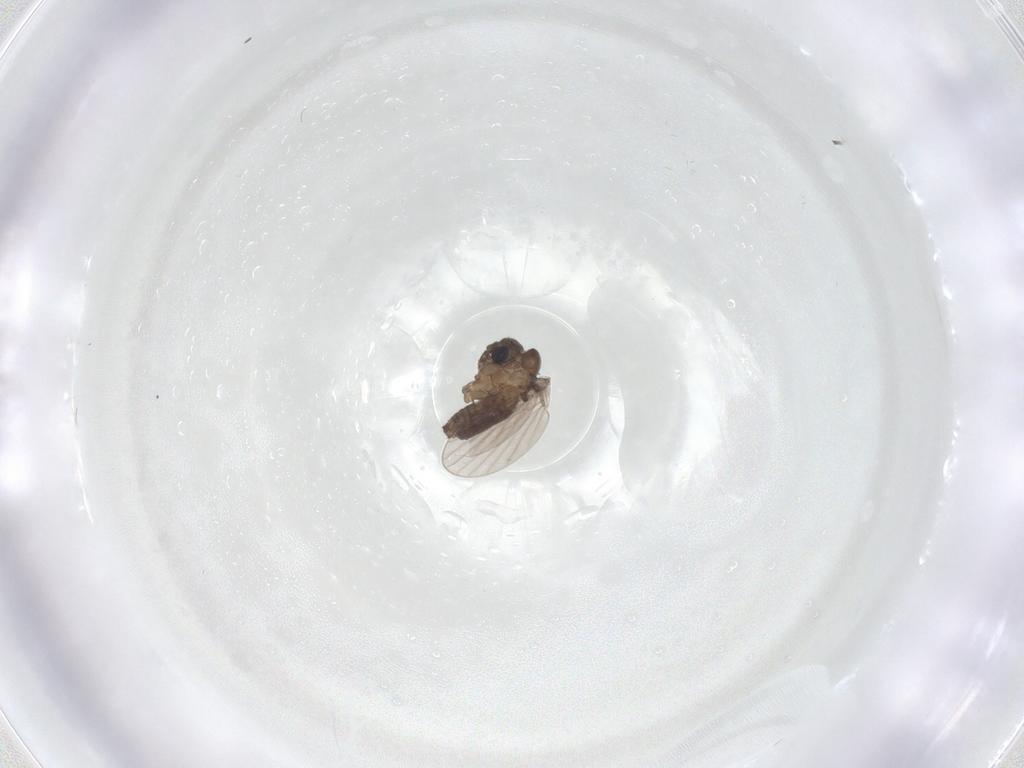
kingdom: Animalia
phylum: Arthropoda
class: Insecta
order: Diptera
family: Psychodidae
